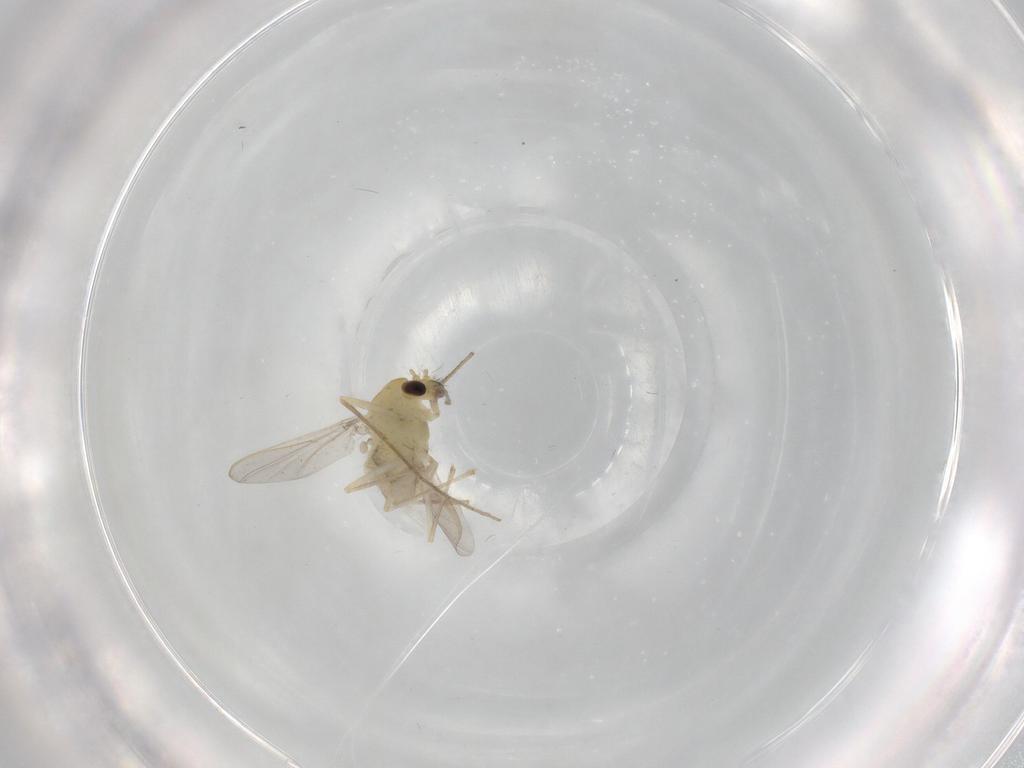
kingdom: Animalia
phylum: Arthropoda
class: Insecta
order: Diptera
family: Chironomidae
